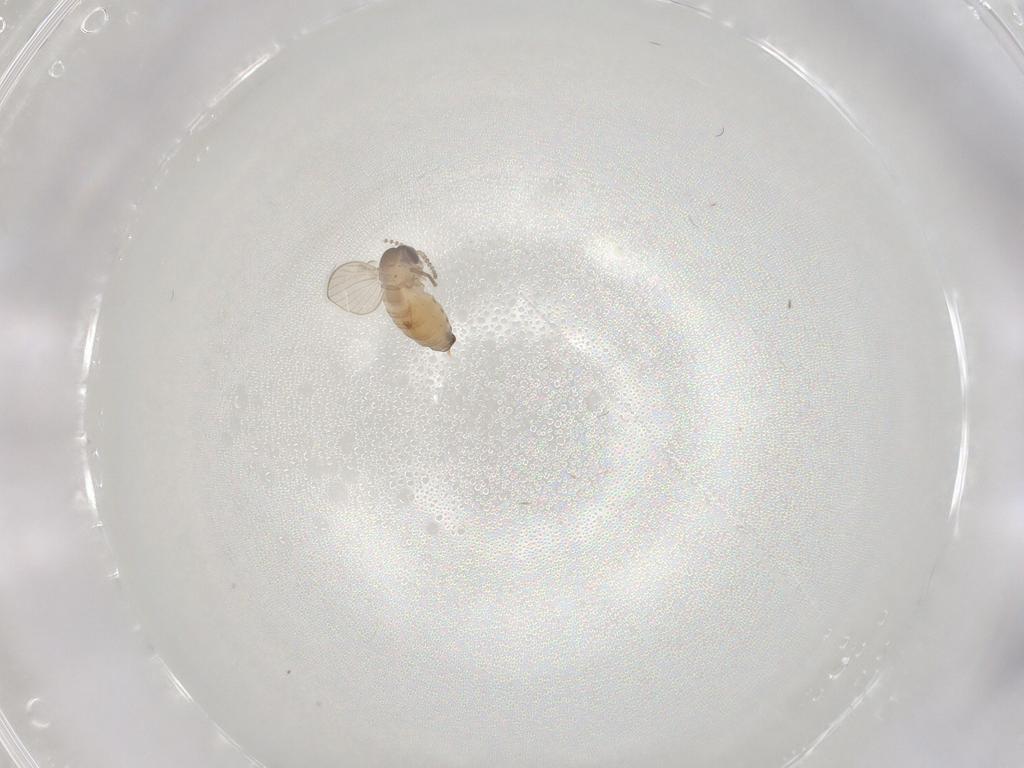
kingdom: Animalia
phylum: Arthropoda
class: Insecta
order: Diptera
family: Psychodidae
